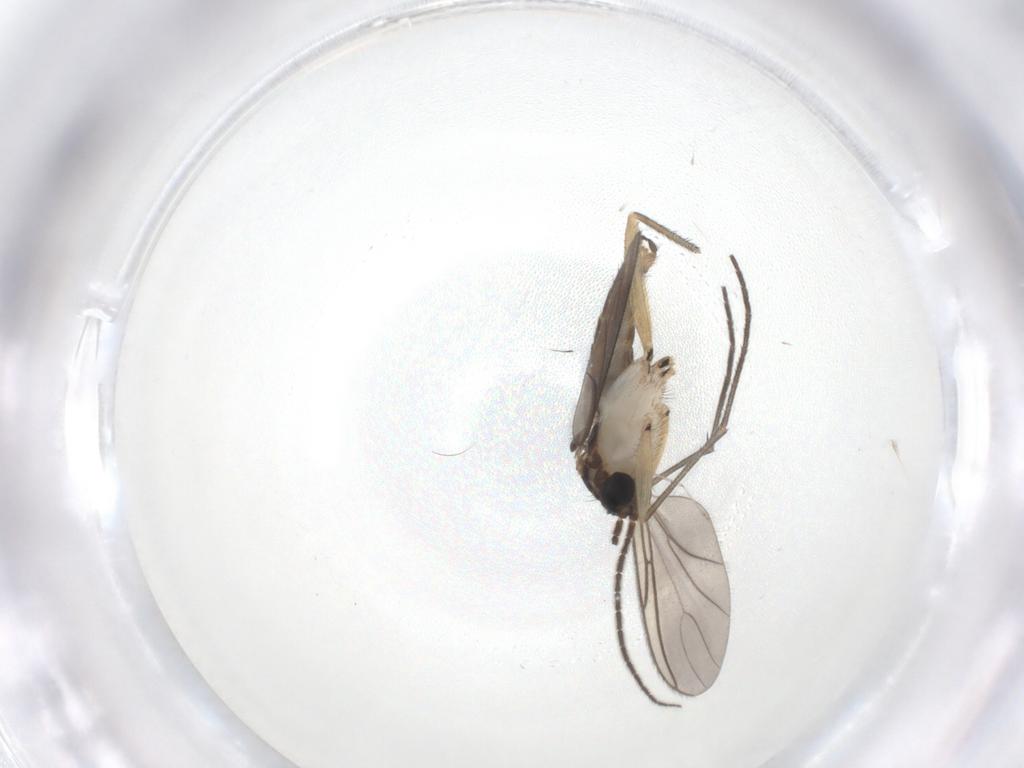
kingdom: Animalia
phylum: Arthropoda
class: Insecta
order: Diptera
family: Sciaridae
